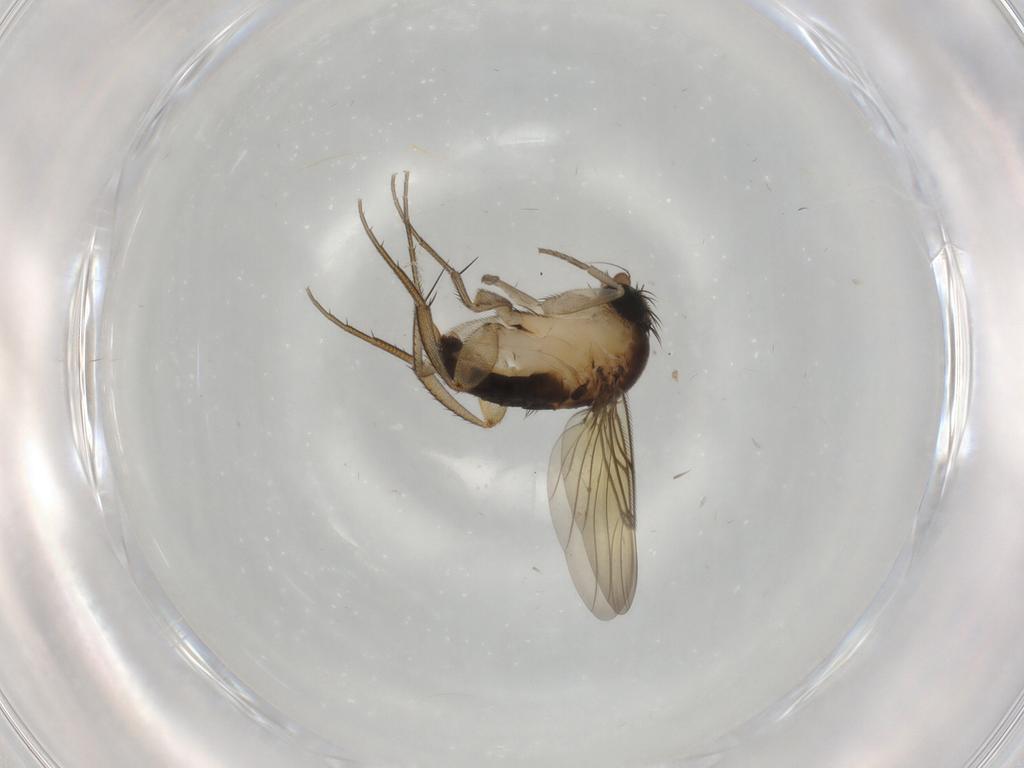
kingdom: Animalia
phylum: Arthropoda
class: Insecta
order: Diptera
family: Phoridae
